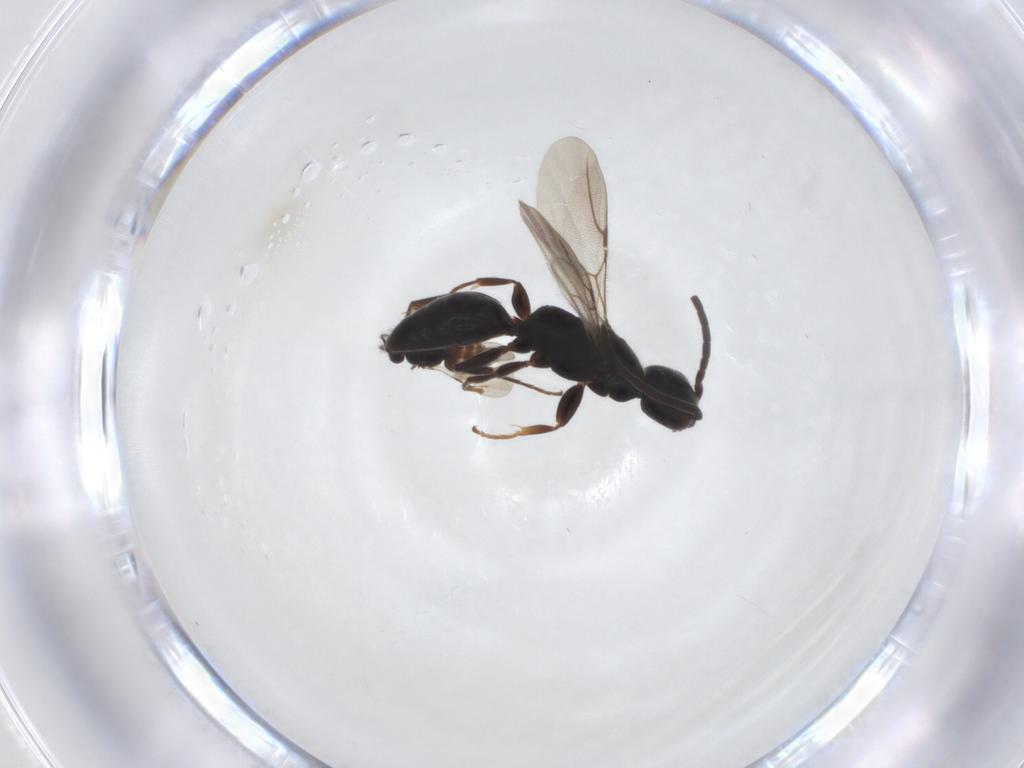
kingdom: Animalia
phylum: Arthropoda
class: Insecta
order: Hymenoptera
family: Bethylidae
